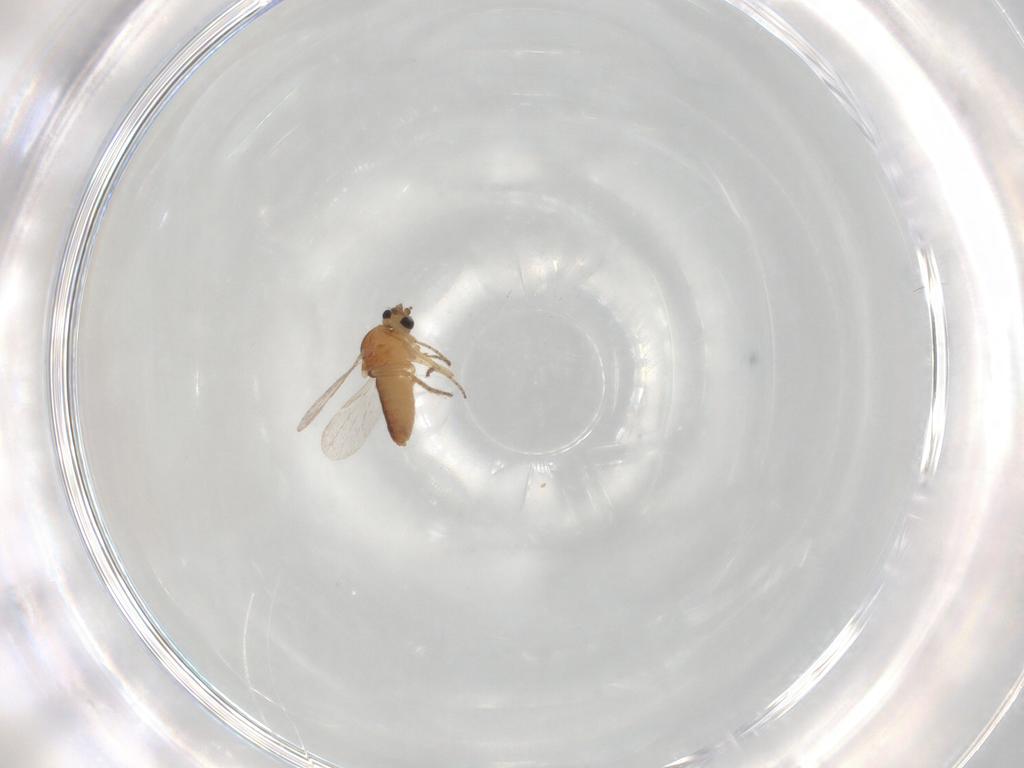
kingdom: Animalia
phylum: Arthropoda
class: Insecta
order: Diptera
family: Ceratopogonidae
